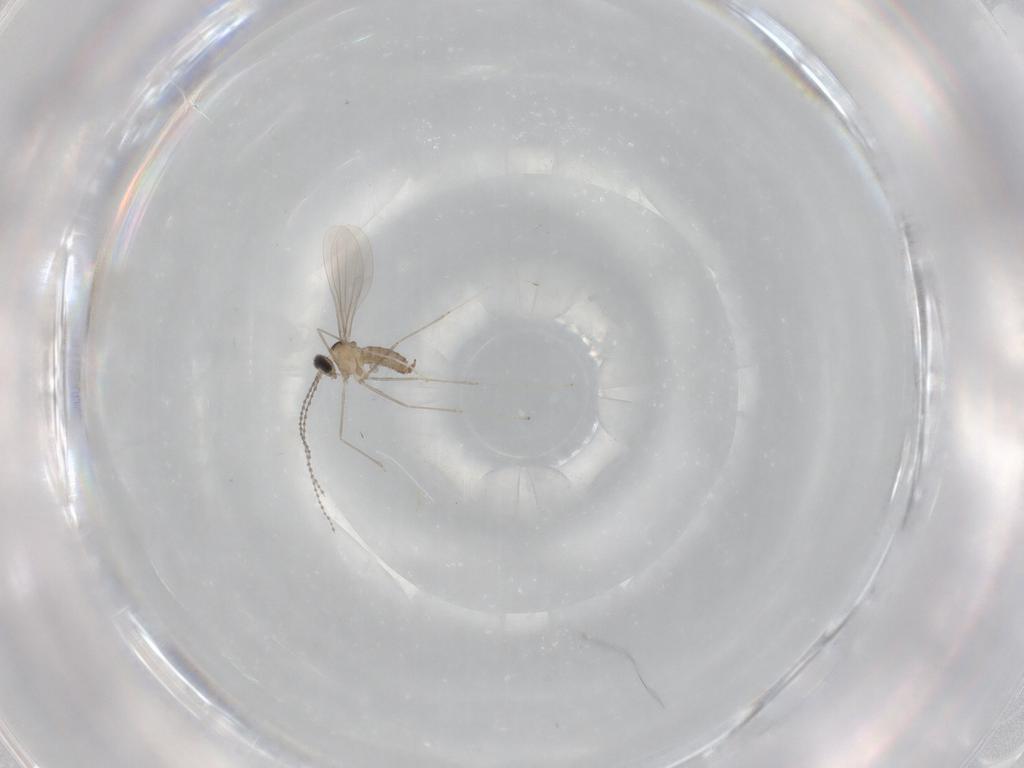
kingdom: Animalia
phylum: Arthropoda
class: Insecta
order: Diptera
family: Cecidomyiidae
